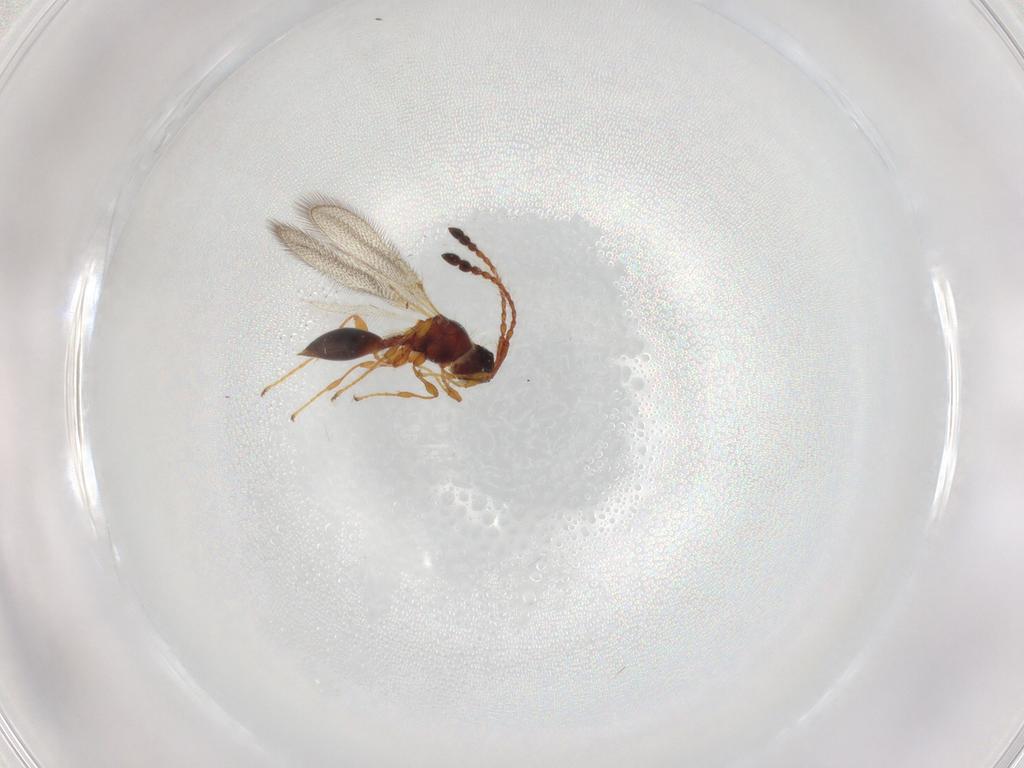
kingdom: Animalia
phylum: Arthropoda
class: Insecta
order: Hymenoptera
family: Diapriidae
